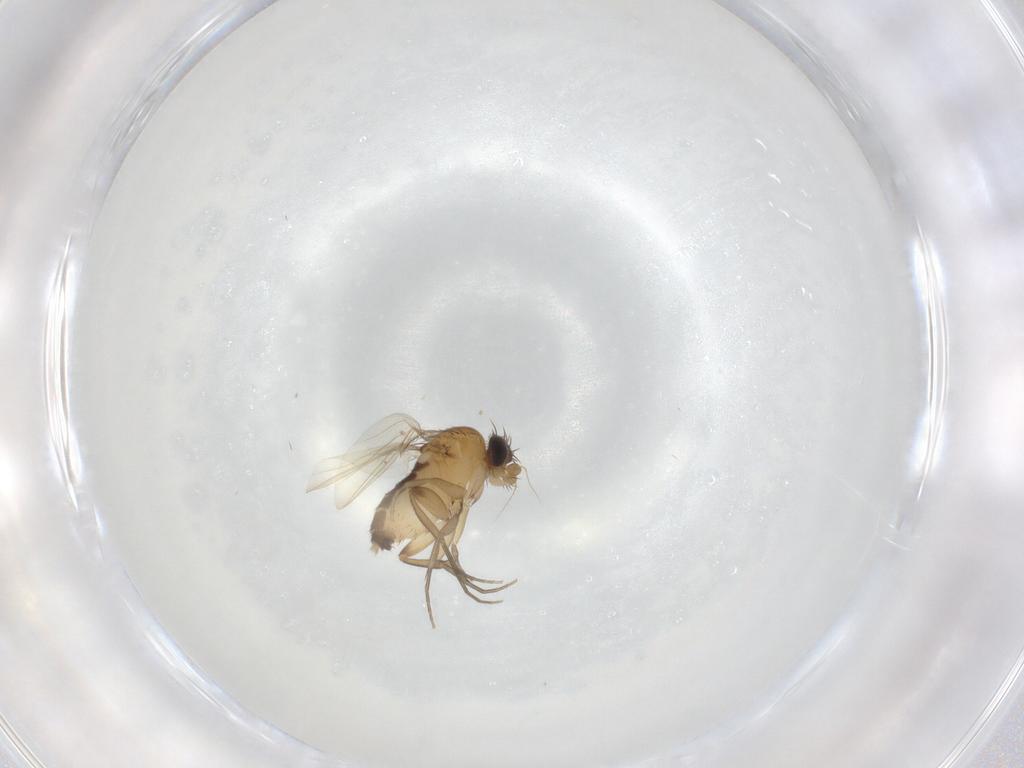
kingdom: Animalia
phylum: Arthropoda
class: Insecta
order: Diptera
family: Phoridae
